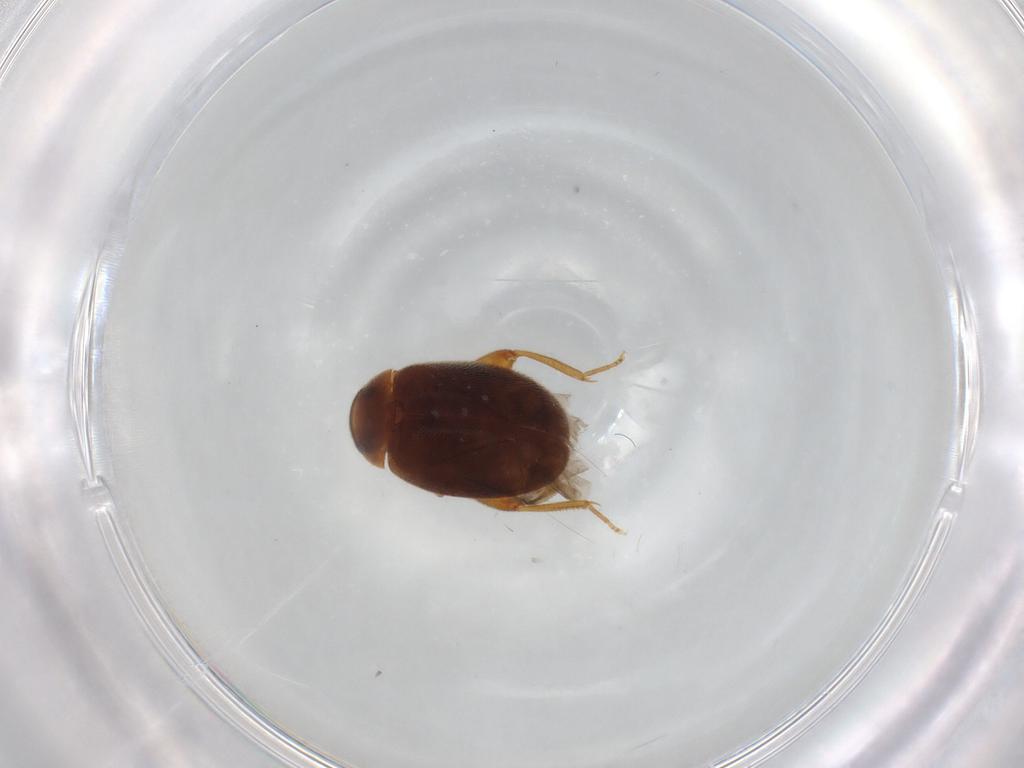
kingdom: Animalia
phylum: Arthropoda
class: Insecta
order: Coleoptera
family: Scirtidae
